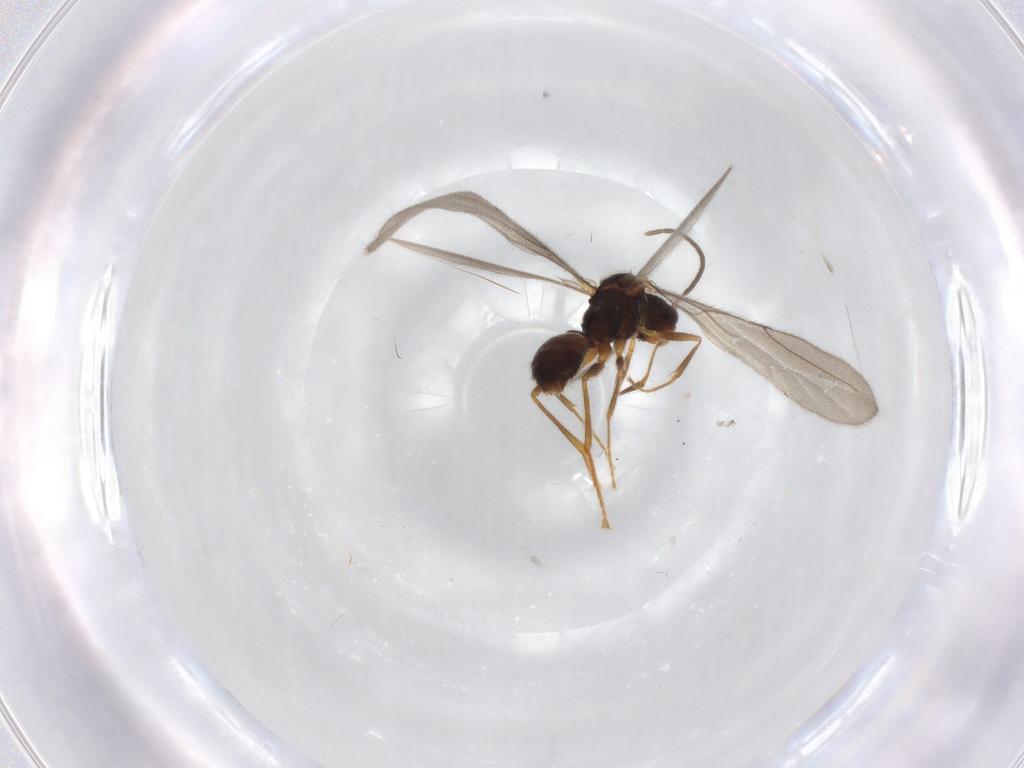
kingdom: Animalia
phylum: Arthropoda
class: Insecta
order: Hymenoptera
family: Bethylidae
